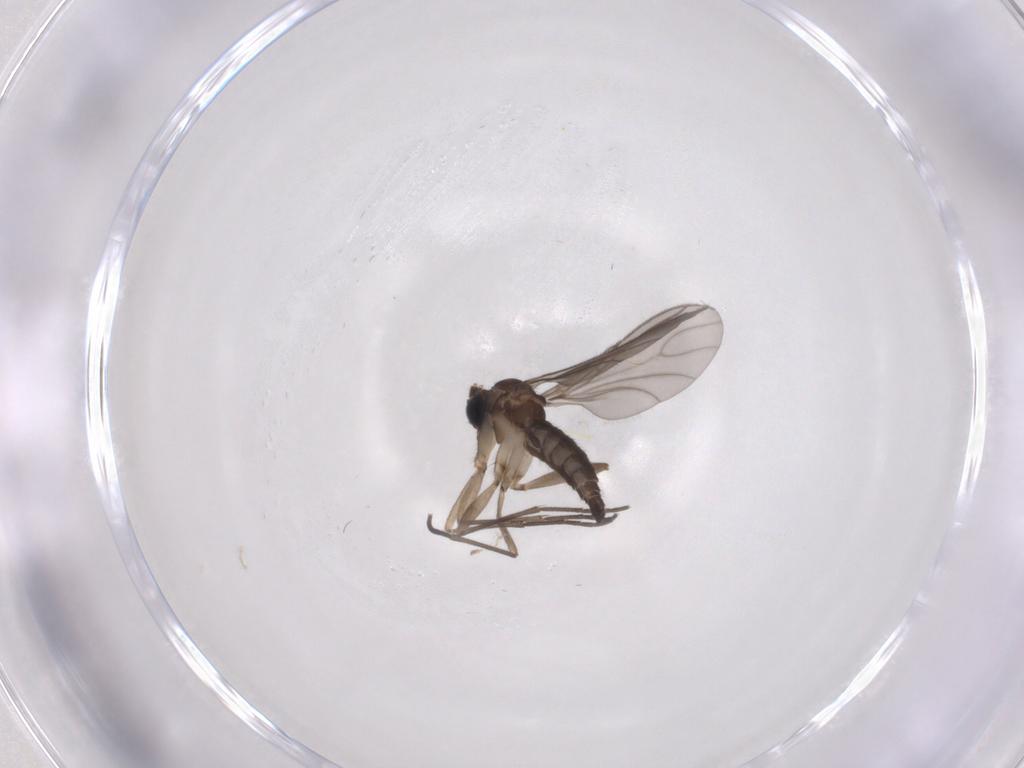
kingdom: Animalia
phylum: Arthropoda
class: Insecta
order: Diptera
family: Sciaridae
